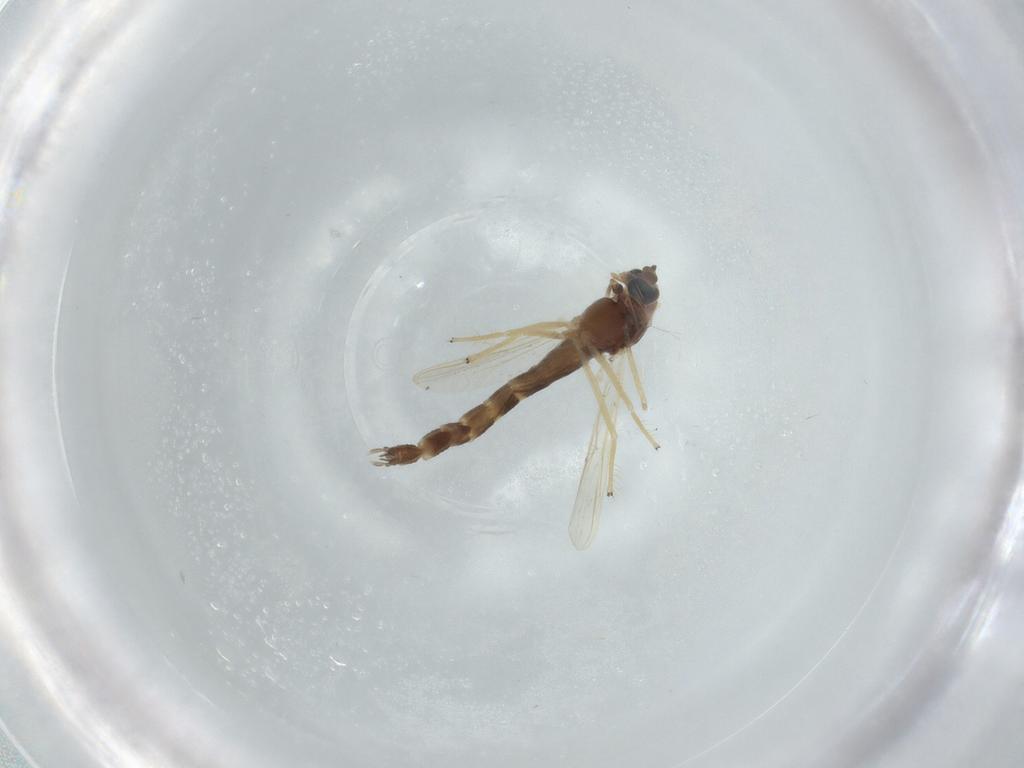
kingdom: Animalia
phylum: Arthropoda
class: Insecta
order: Diptera
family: Chironomidae
